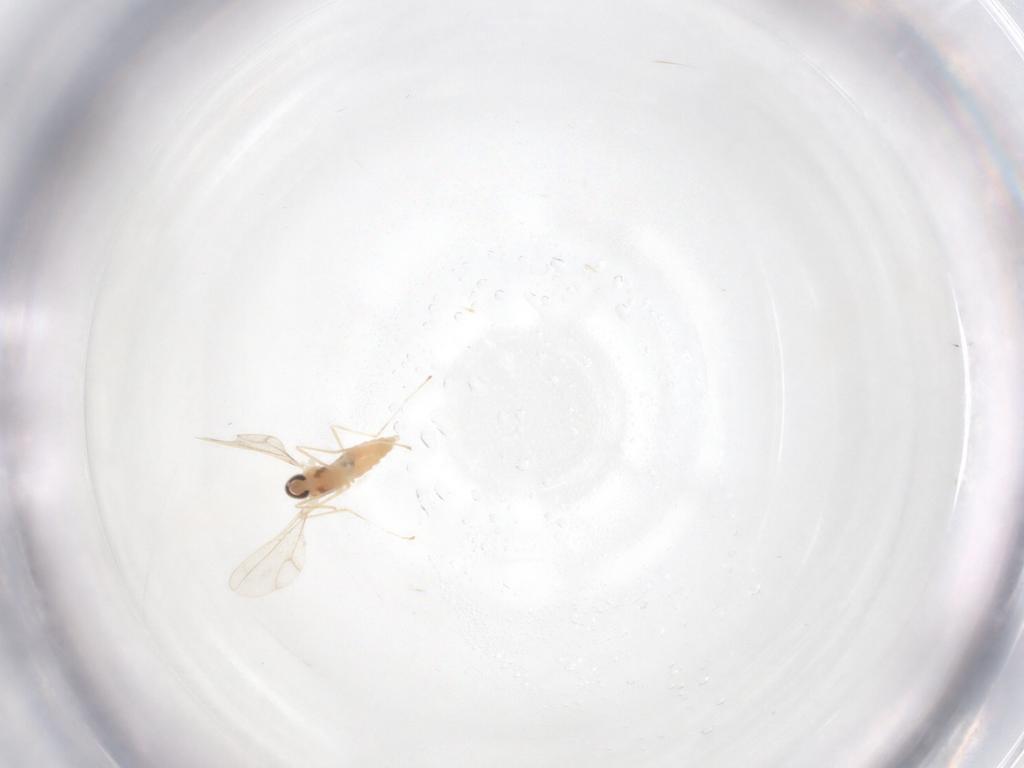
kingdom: Animalia
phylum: Arthropoda
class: Insecta
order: Diptera
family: Cecidomyiidae
